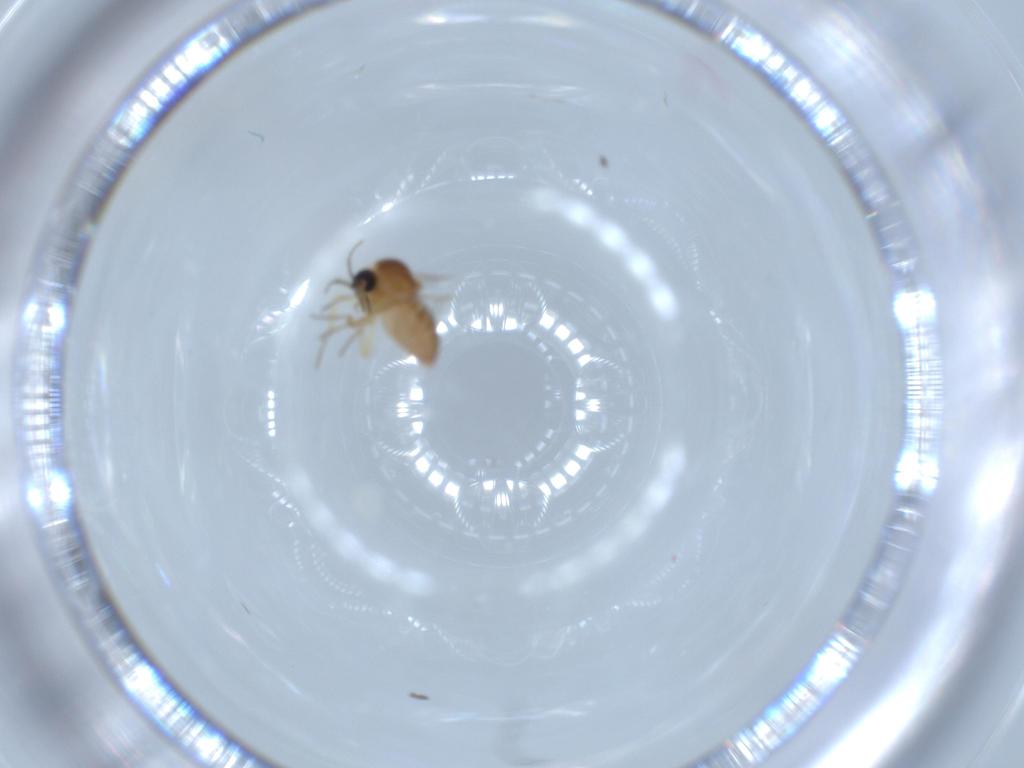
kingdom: Animalia
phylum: Arthropoda
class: Insecta
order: Diptera
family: Ceratopogonidae
